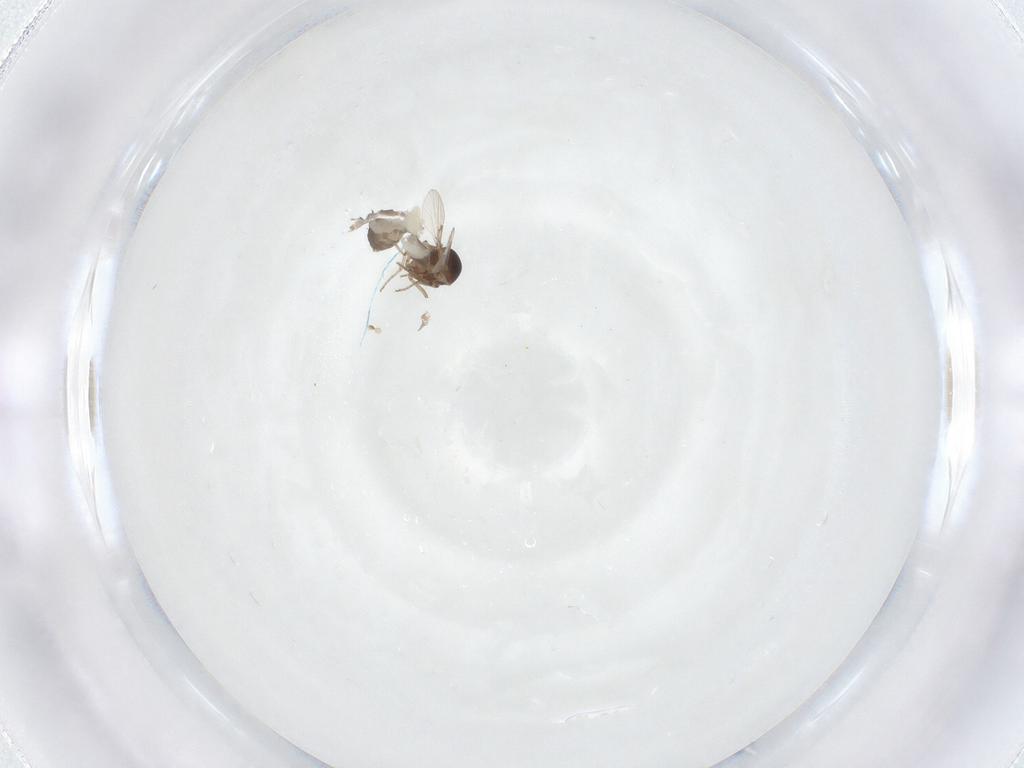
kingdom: Animalia
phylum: Arthropoda
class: Insecta
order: Diptera
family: Ceratopogonidae
